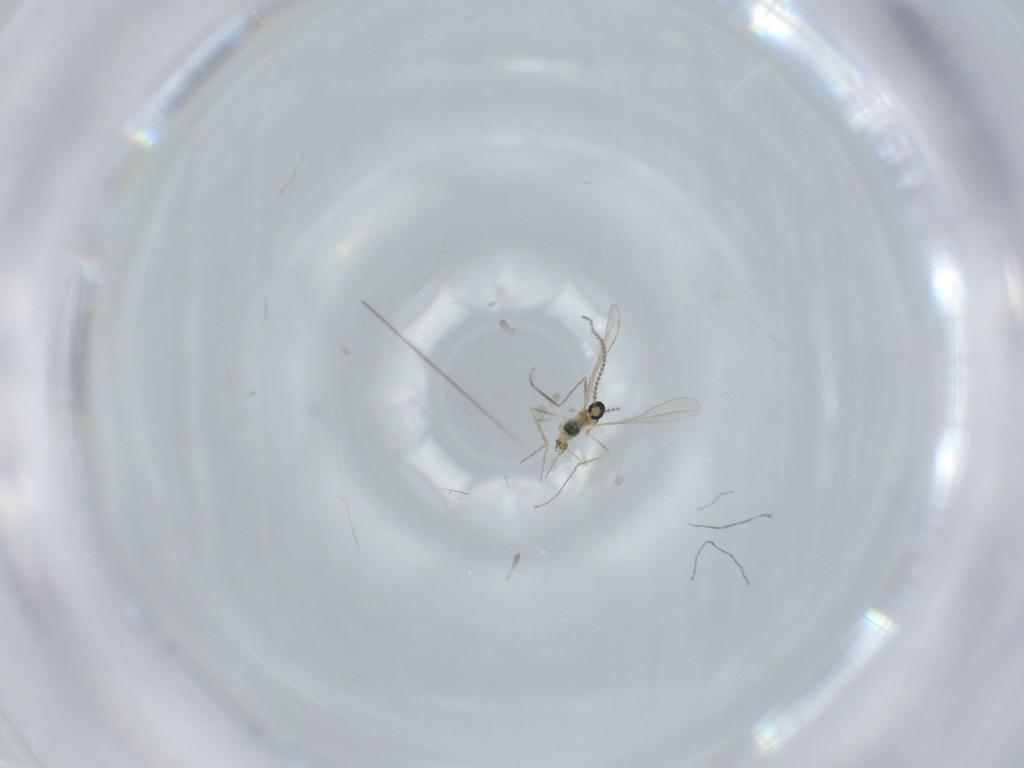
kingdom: Animalia
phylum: Arthropoda
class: Insecta
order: Diptera
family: Cecidomyiidae
